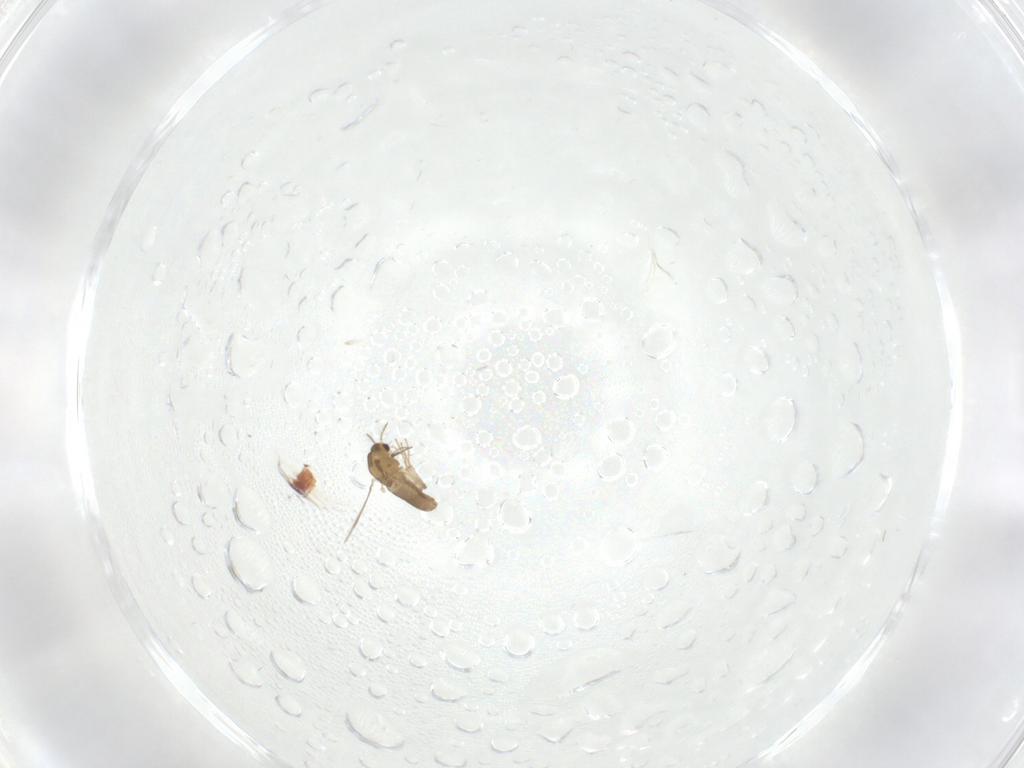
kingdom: Animalia
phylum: Arthropoda
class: Insecta
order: Diptera
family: Chironomidae
